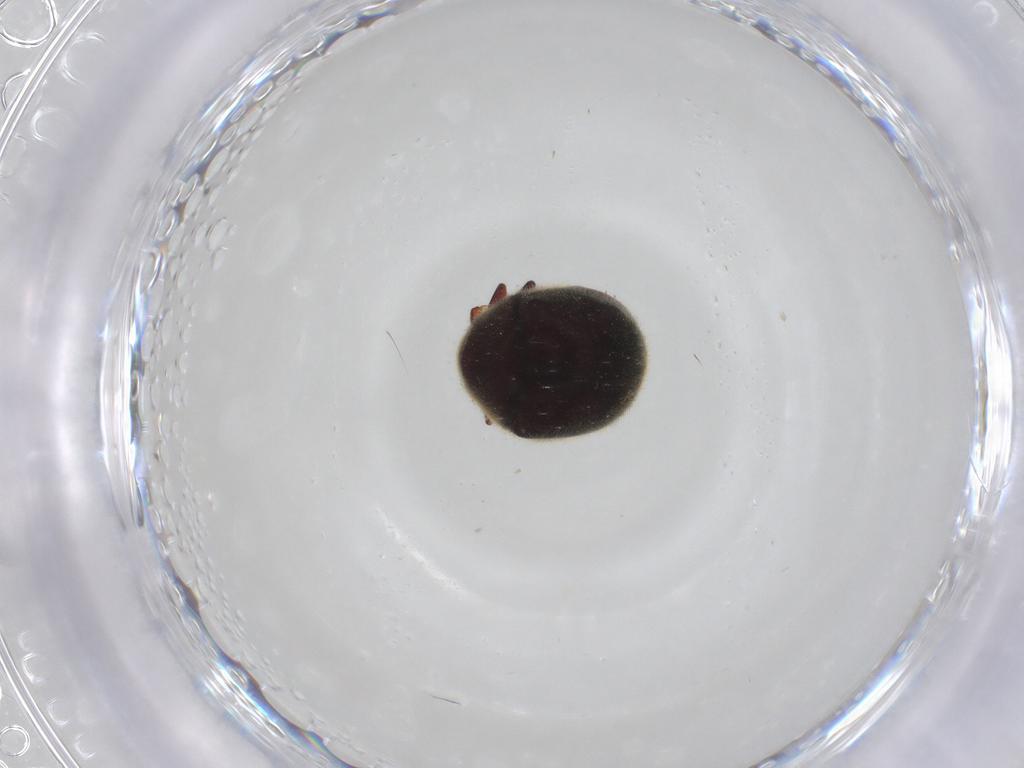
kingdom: Animalia
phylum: Arthropoda
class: Insecta
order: Coleoptera
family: Ptinidae
